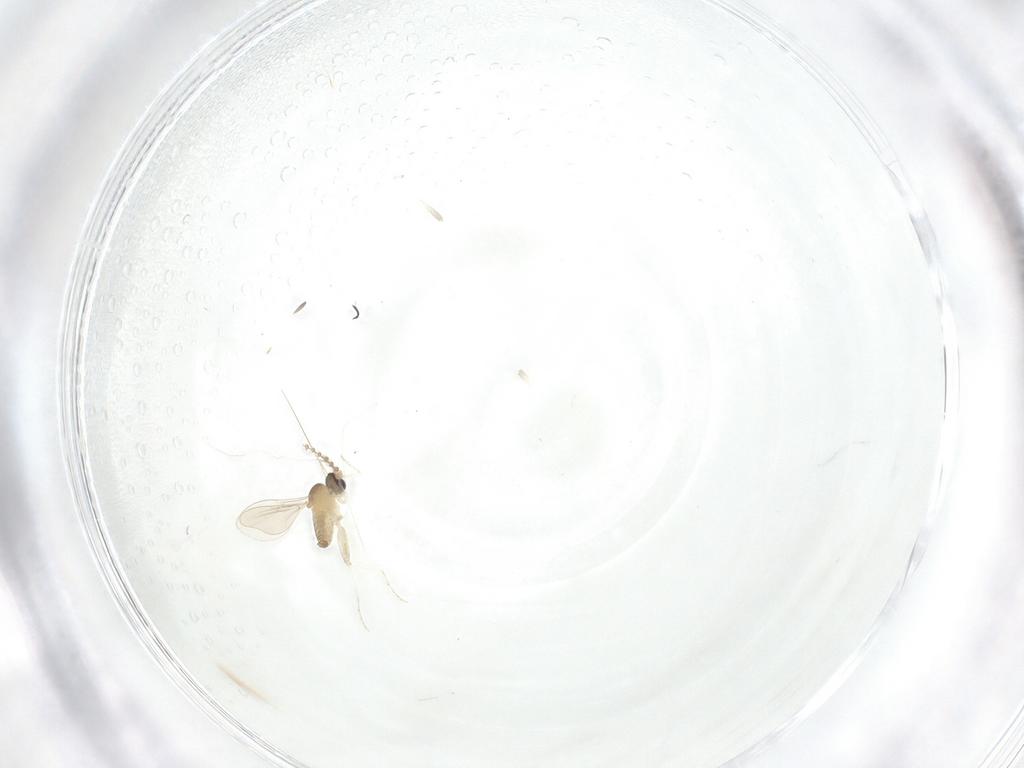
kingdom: Animalia
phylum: Arthropoda
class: Insecta
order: Diptera
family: Cecidomyiidae
